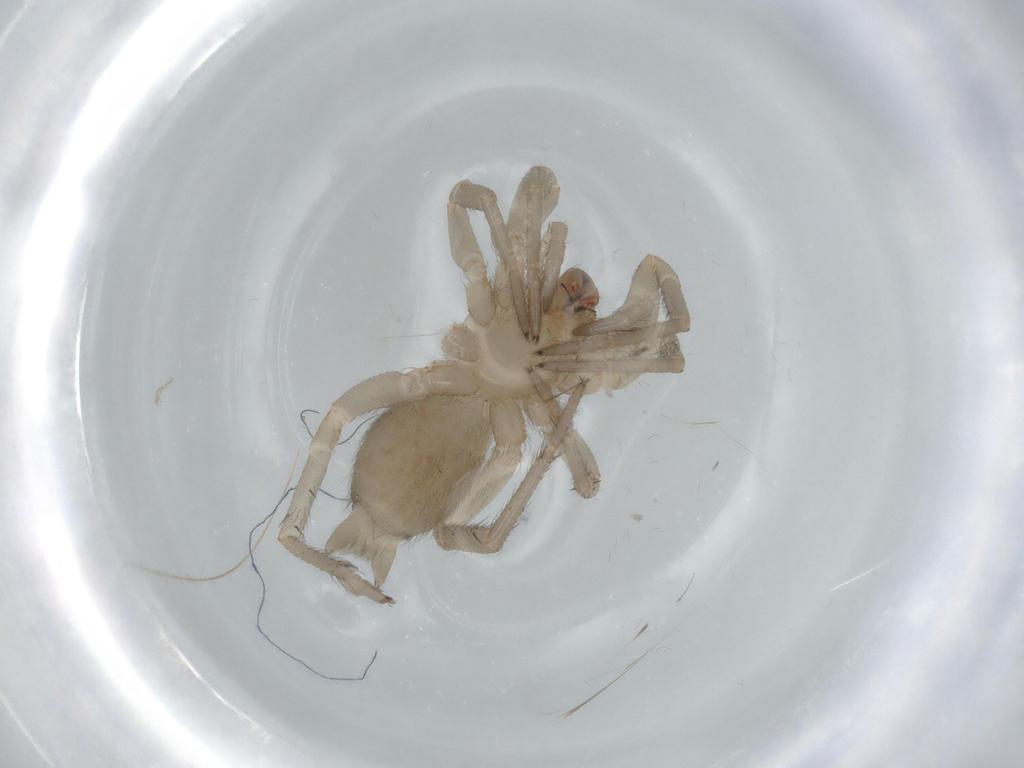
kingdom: Animalia
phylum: Arthropoda
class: Arachnida
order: Araneae
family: Gnaphosidae
